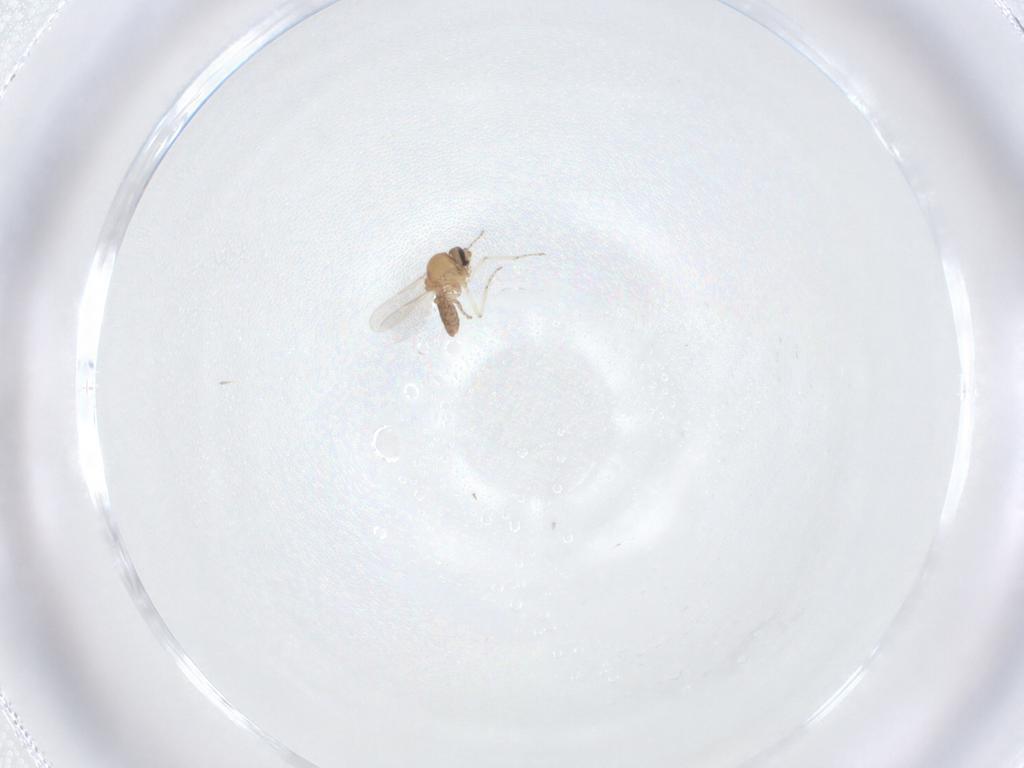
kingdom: Animalia
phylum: Arthropoda
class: Insecta
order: Diptera
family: Ceratopogonidae
